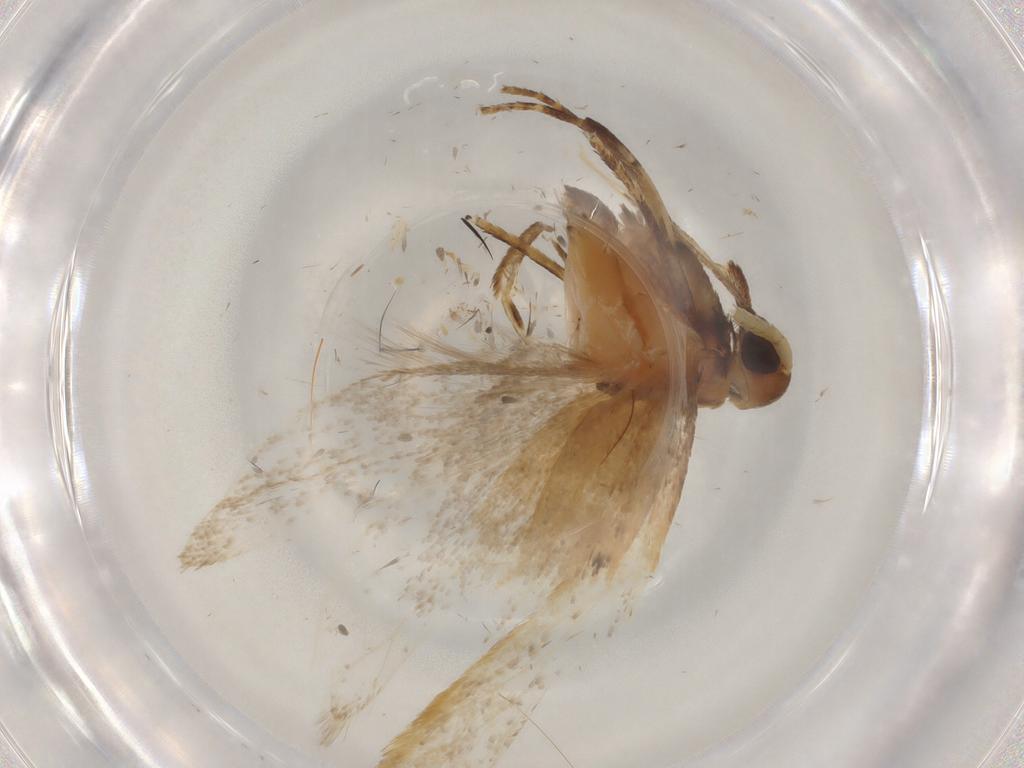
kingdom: Animalia
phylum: Arthropoda
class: Insecta
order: Lepidoptera
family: Lecithoceridae
